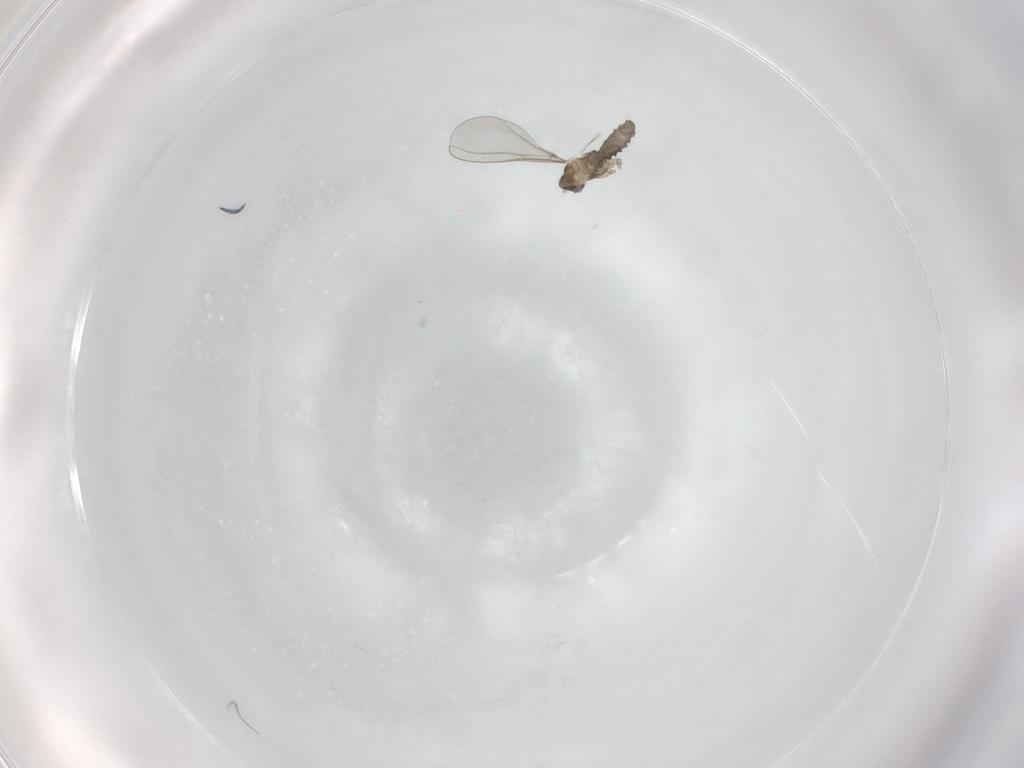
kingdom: Animalia
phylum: Arthropoda
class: Insecta
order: Diptera
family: Cecidomyiidae
